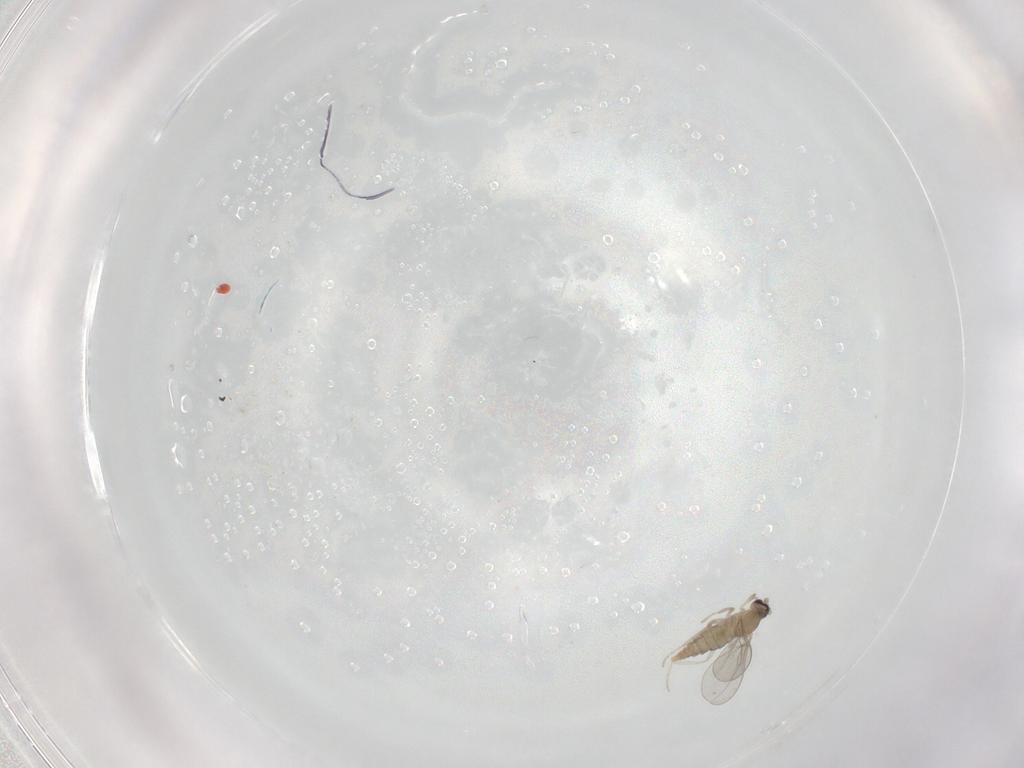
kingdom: Animalia
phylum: Arthropoda
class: Insecta
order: Diptera
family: Cecidomyiidae
